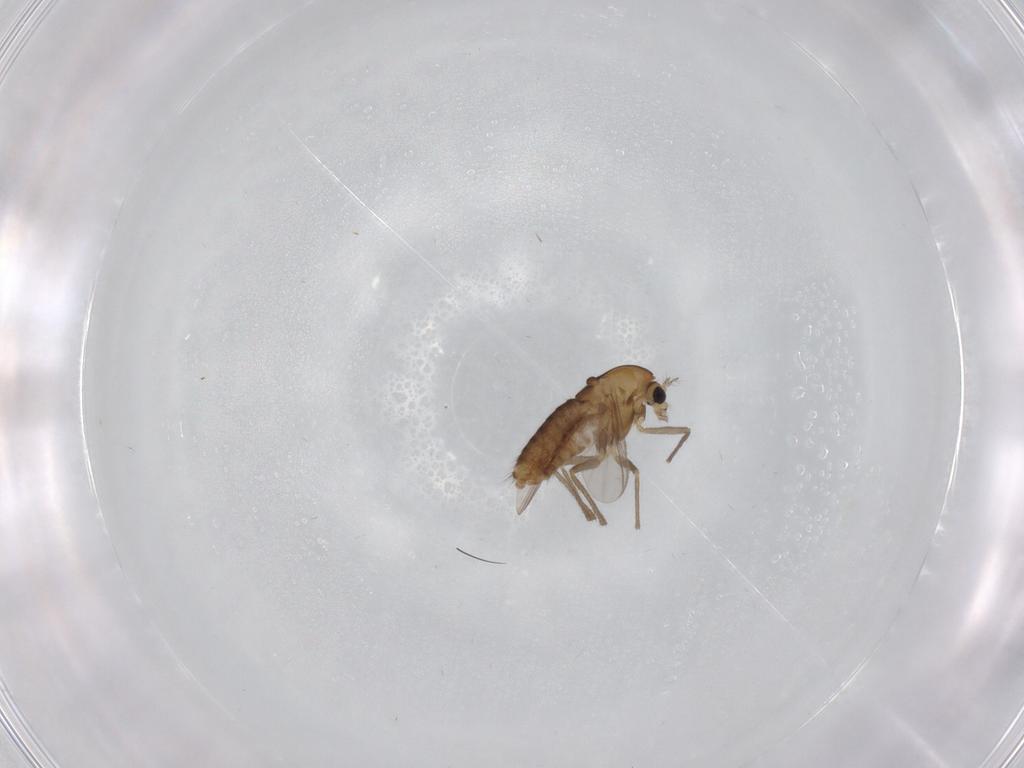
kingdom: Animalia
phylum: Arthropoda
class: Insecta
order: Diptera
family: Chironomidae
